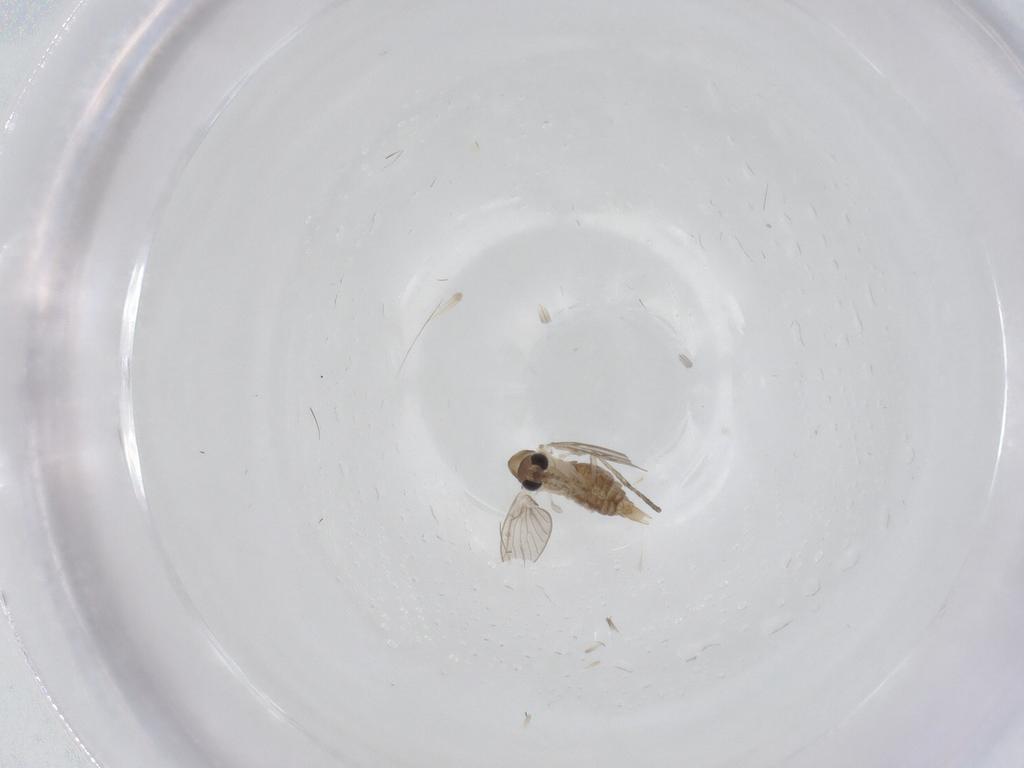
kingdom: Animalia
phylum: Arthropoda
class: Insecta
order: Diptera
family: Psychodidae
